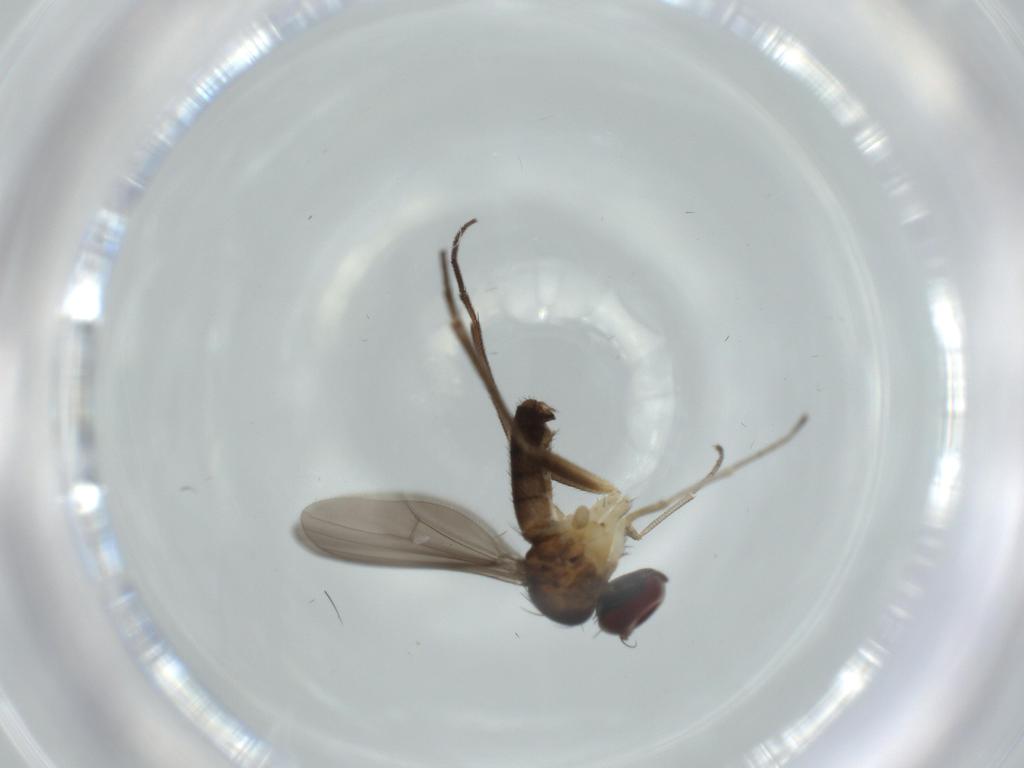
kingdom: Animalia
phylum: Arthropoda
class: Insecta
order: Diptera
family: Dolichopodidae
